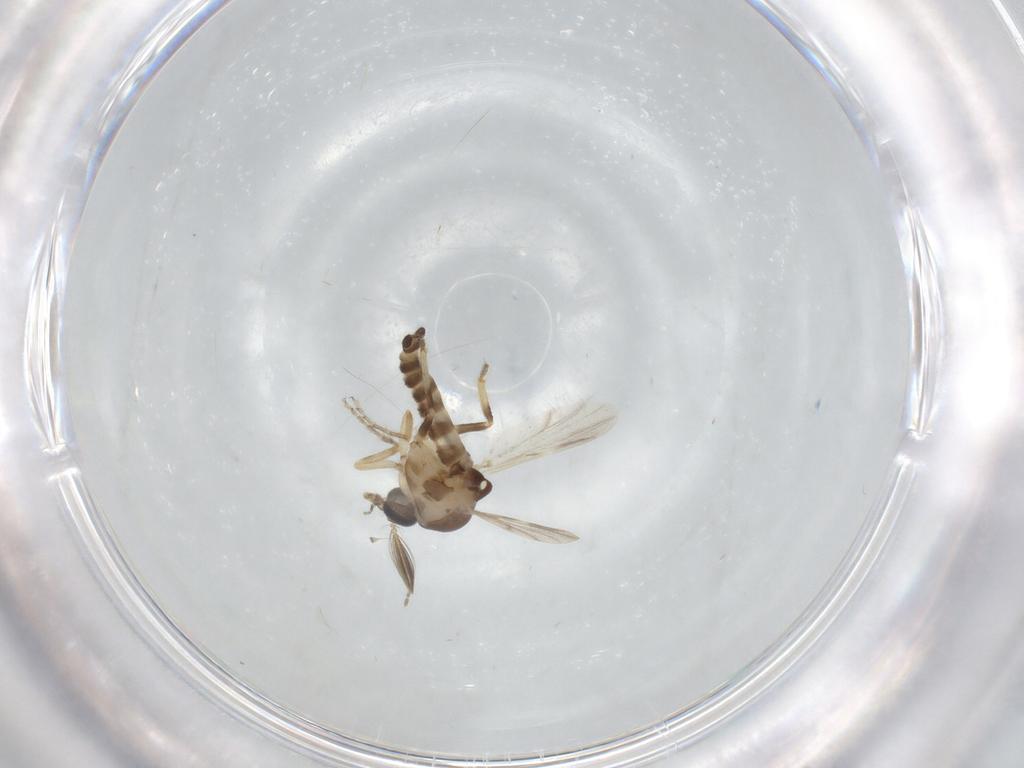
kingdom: Animalia
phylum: Arthropoda
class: Insecta
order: Diptera
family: Ceratopogonidae
